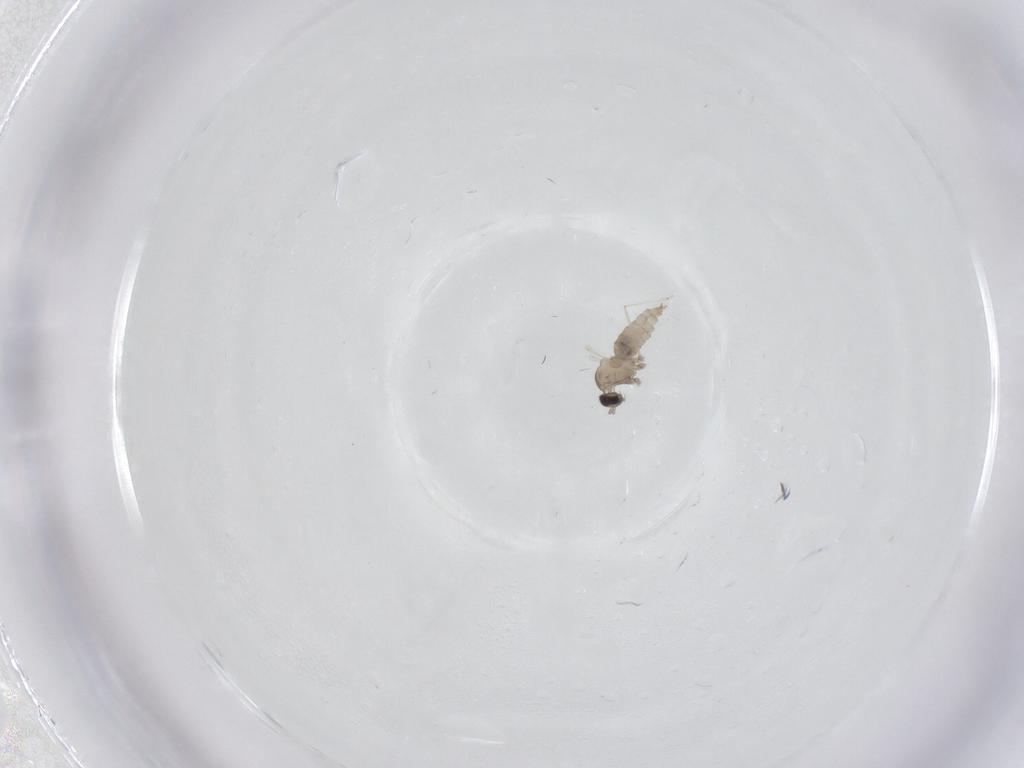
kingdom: Animalia
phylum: Arthropoda
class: Insecta
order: Diptera
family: Cecidomyiidae
